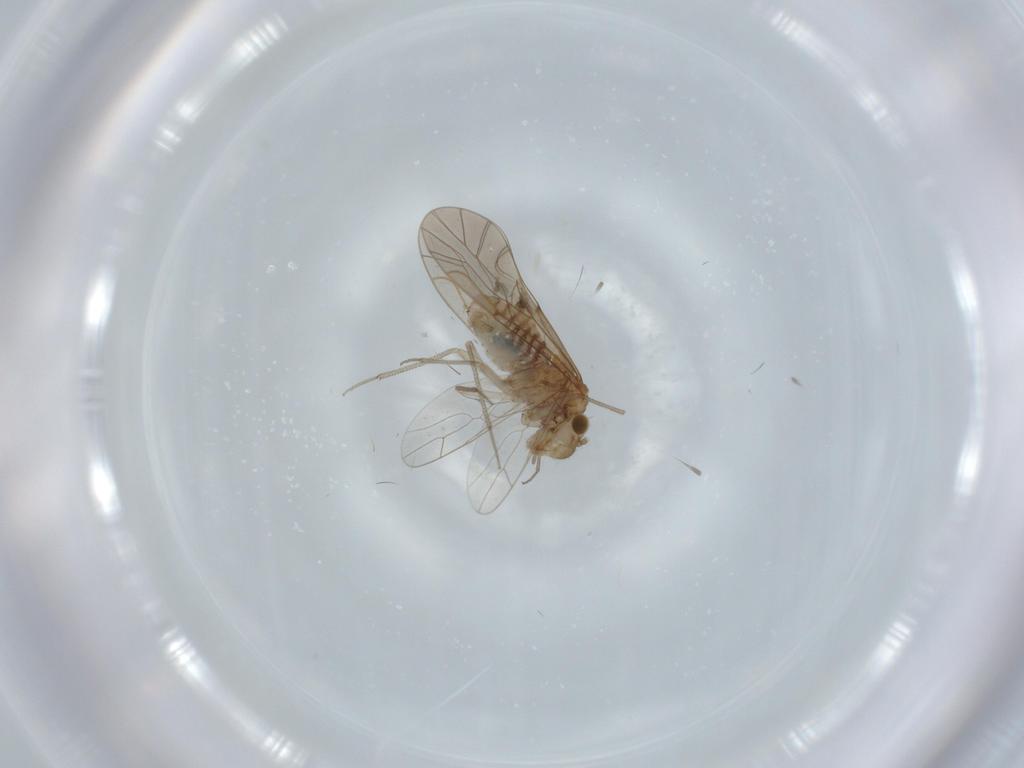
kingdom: Animalia
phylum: Arthropoda
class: Insecta
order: Psocodea
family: Lachesillidae
